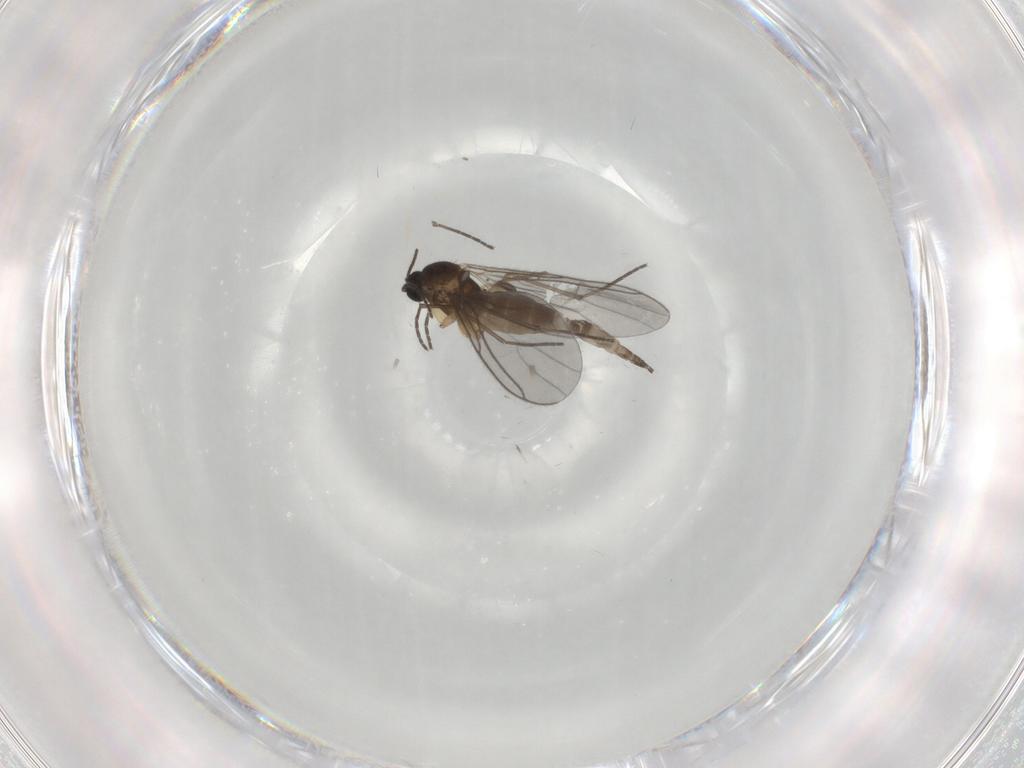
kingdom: Animalia
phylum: Arthropoda
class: Insecta
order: Diptera
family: Sciaridae
